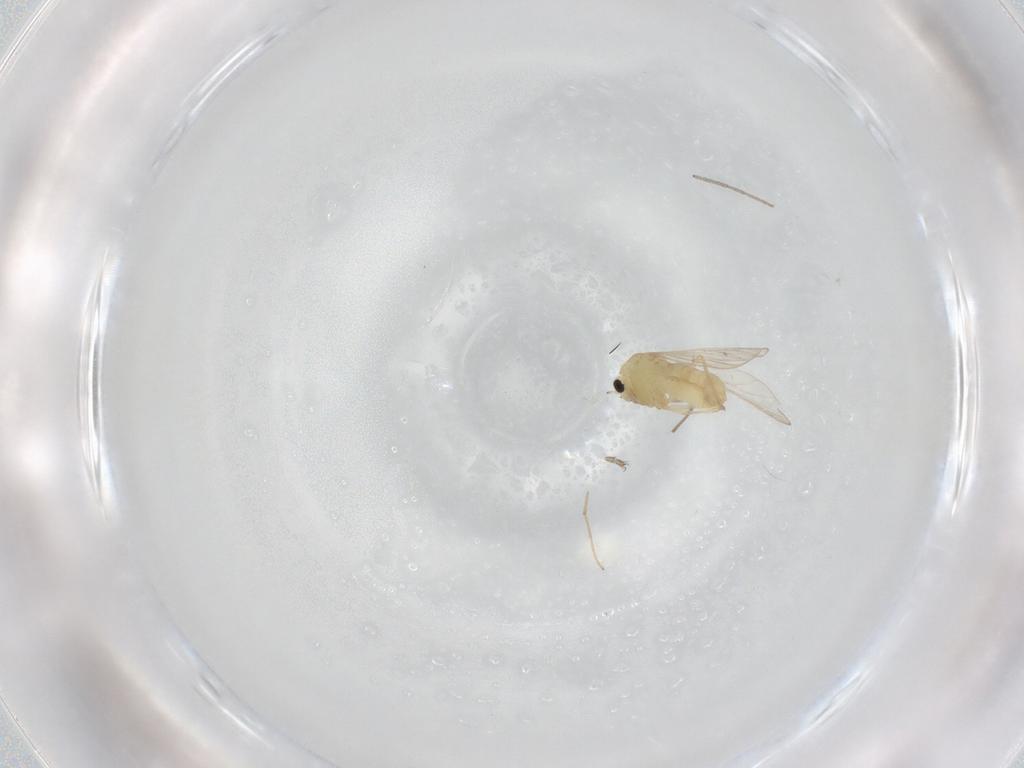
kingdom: Animalia
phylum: Arthropoda
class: Insecta
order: Diptera
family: Chironomidae
